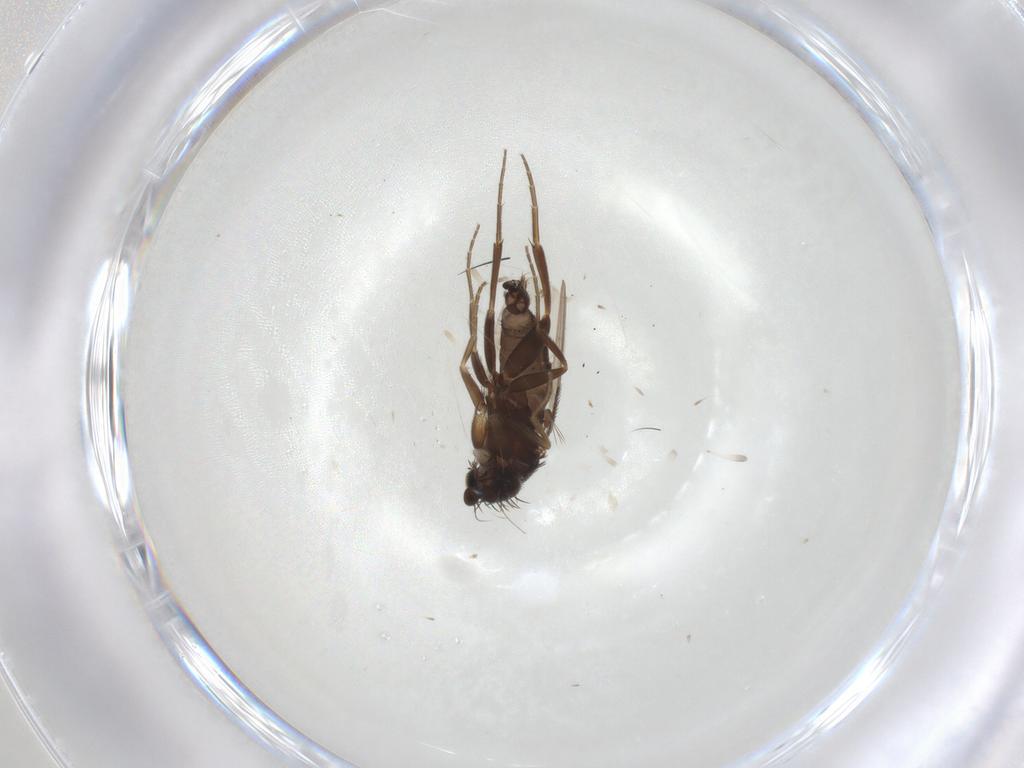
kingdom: Animalia
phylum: Arthropoda
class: Insecta
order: Diptera
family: Phoridae
